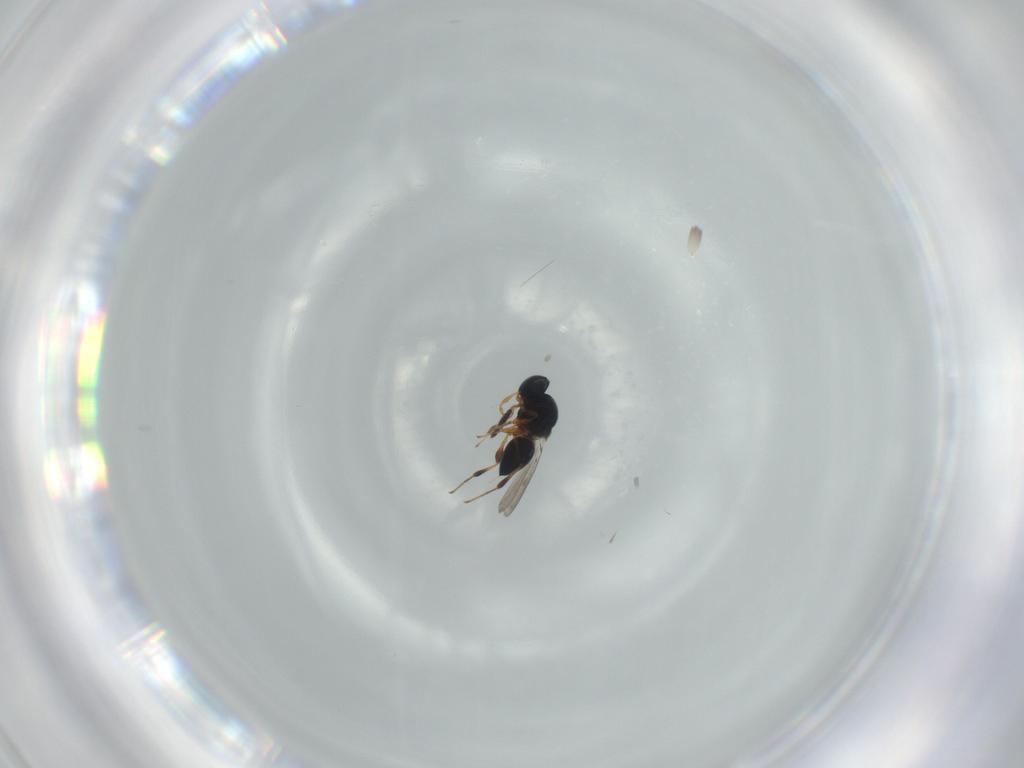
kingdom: Animalia
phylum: Arthropoda
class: Insecta
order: Hymenoptera
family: Platygastridae
